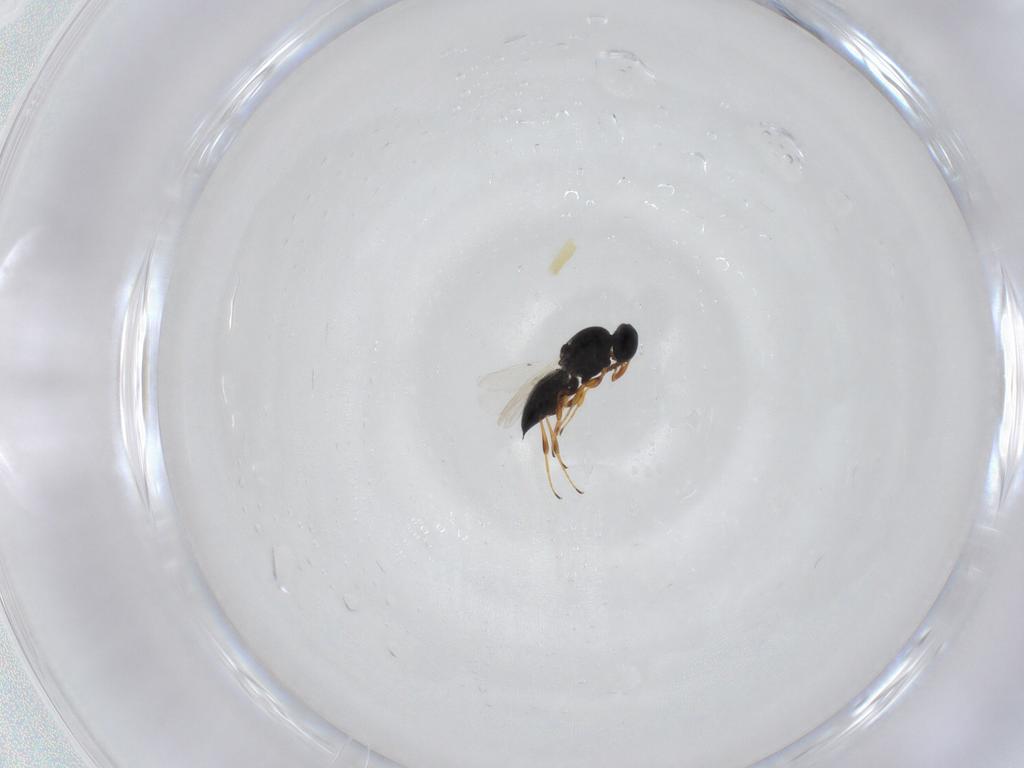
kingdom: Animalia
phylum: Arthropoda
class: Insecta
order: Hymenoptera
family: Platygastridae
